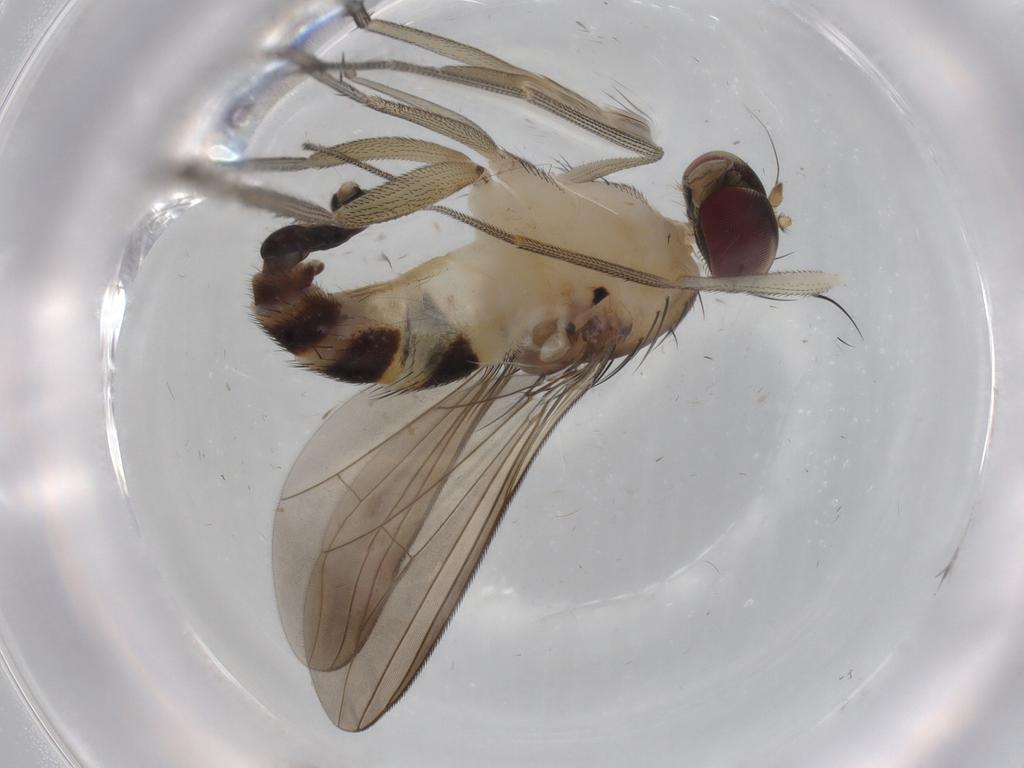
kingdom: Animalia
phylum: Arthropoda
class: Insecta
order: Diptera
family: Dolichopodidae
